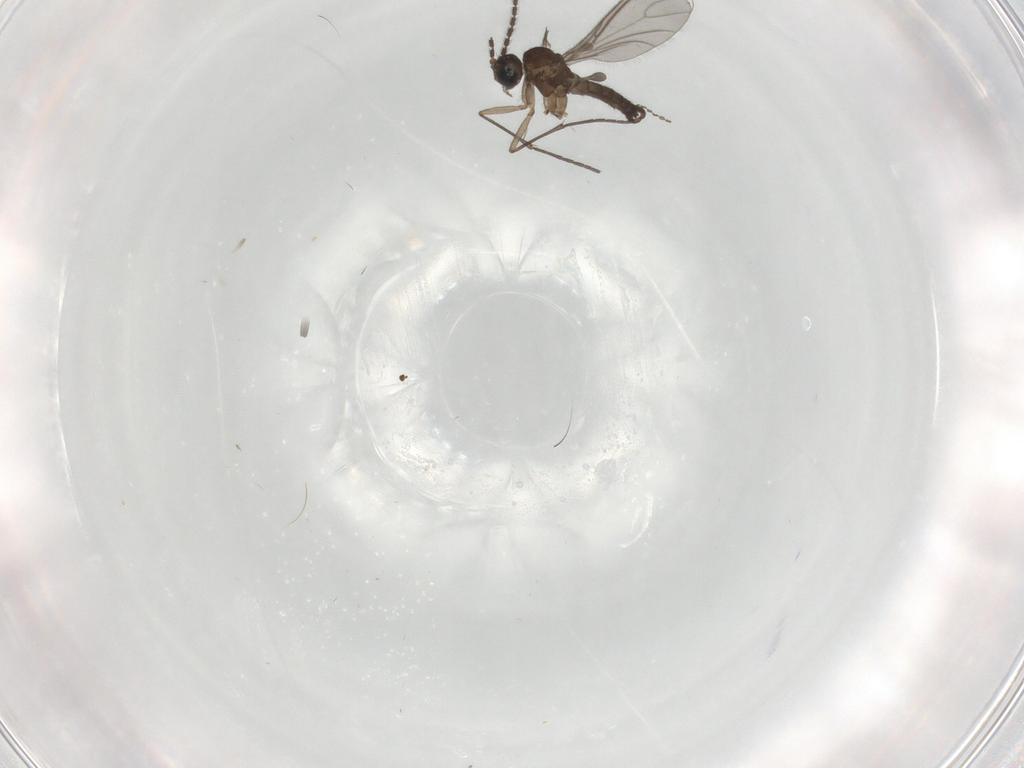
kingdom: Animalia
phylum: Arthropoda
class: Insecta
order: Diptera
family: Sciaridae
